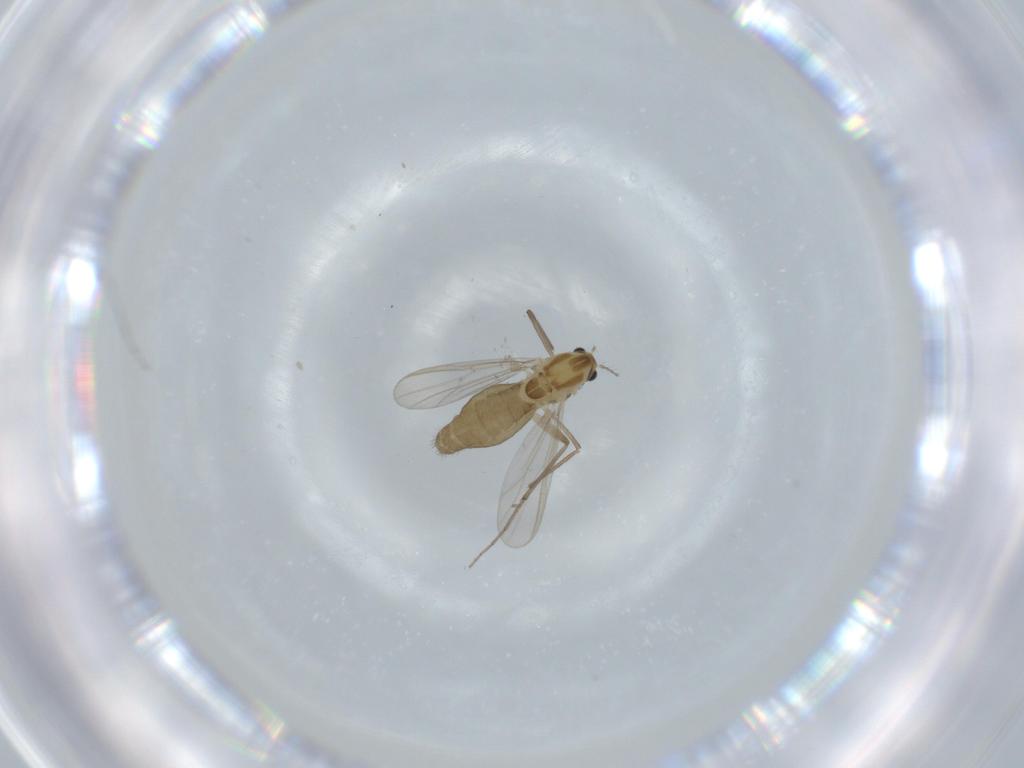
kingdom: Animalia
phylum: Arthropoda
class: Insecta
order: Diptera
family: Chironomidae
